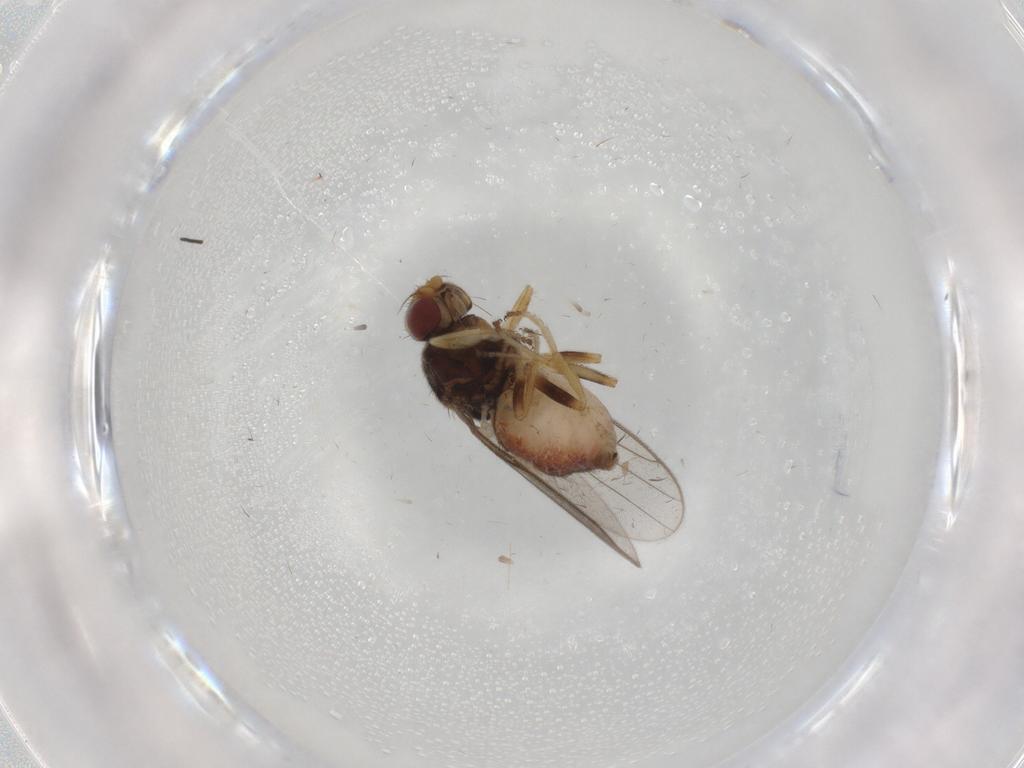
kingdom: Animalia
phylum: Arthropoda
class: Insecta
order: Diptera
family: Chloropidae
